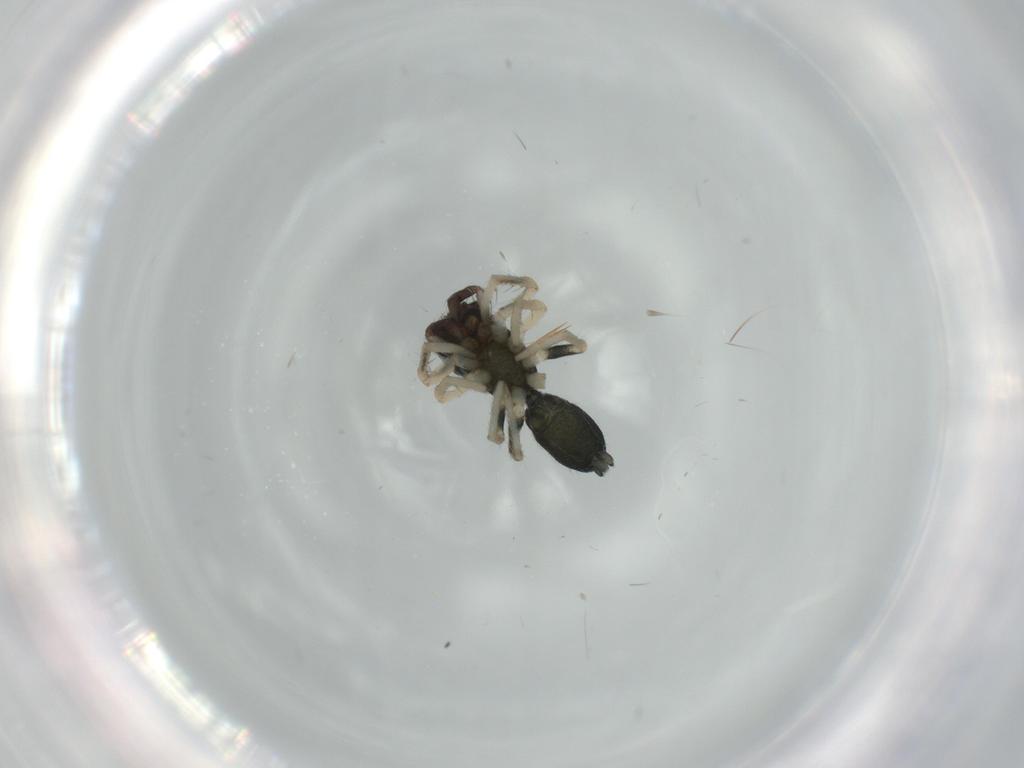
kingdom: Animalia
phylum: Arthropoda
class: Arachnida
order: Araneae
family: Salticidae
